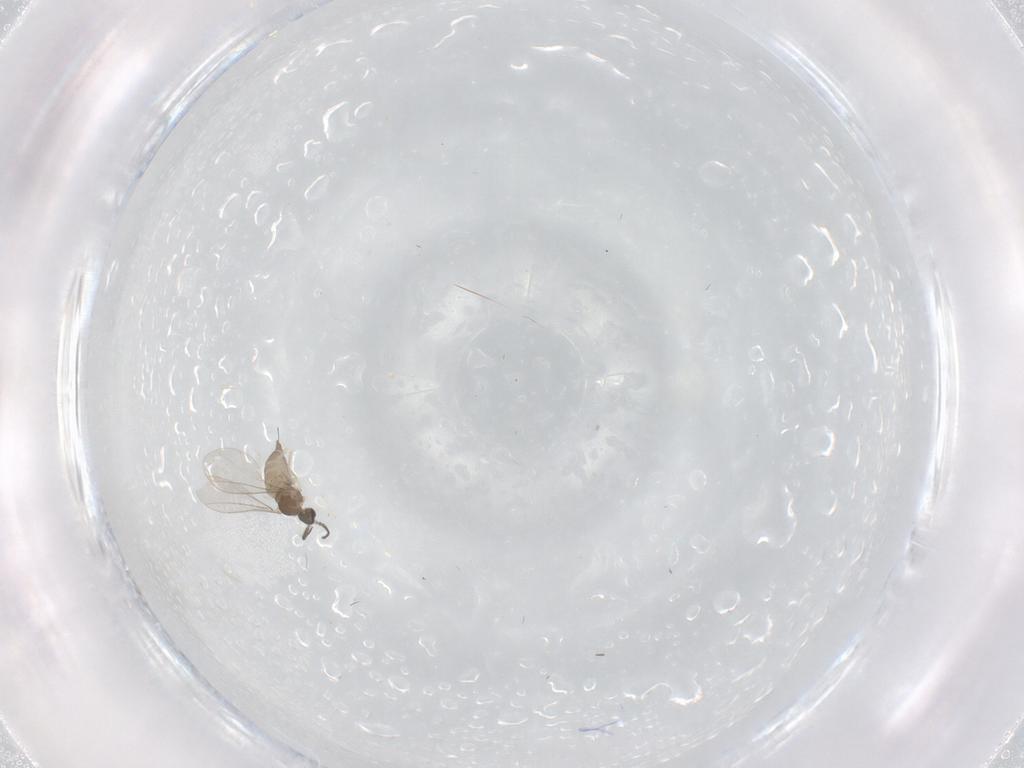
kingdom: Animalia
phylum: Arthropoda
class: Insecta
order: Diptera
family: Cecidomyiidae
